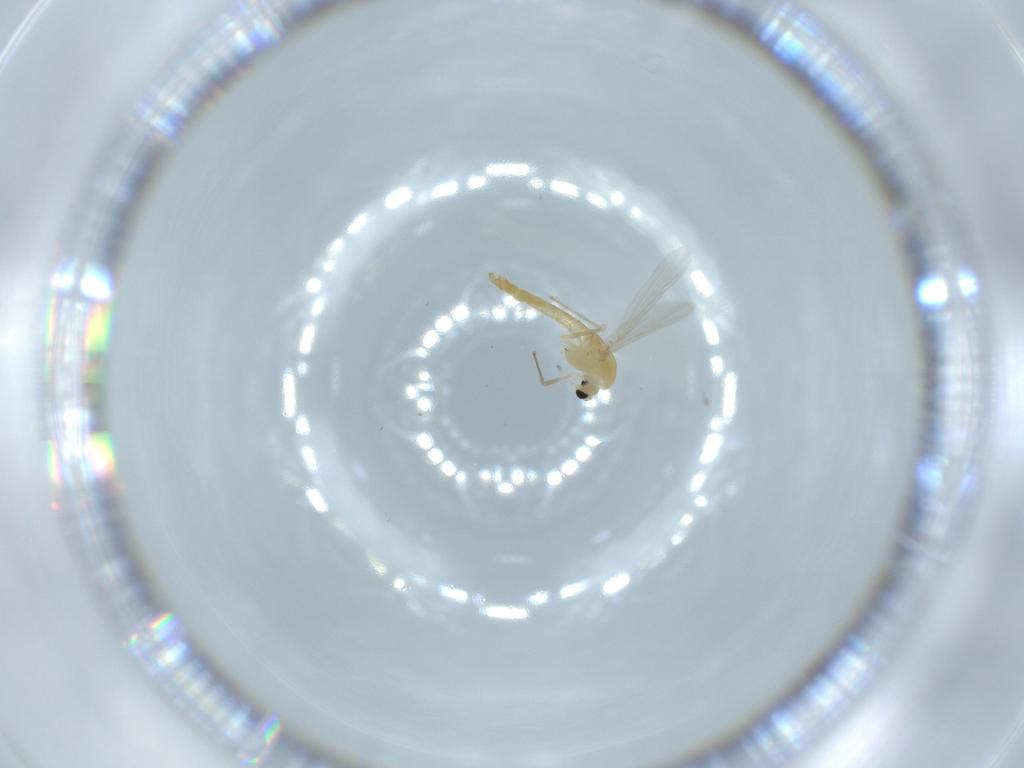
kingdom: Animalia
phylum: Arthropoda
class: Insecta
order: Diptera
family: Chironomidae
